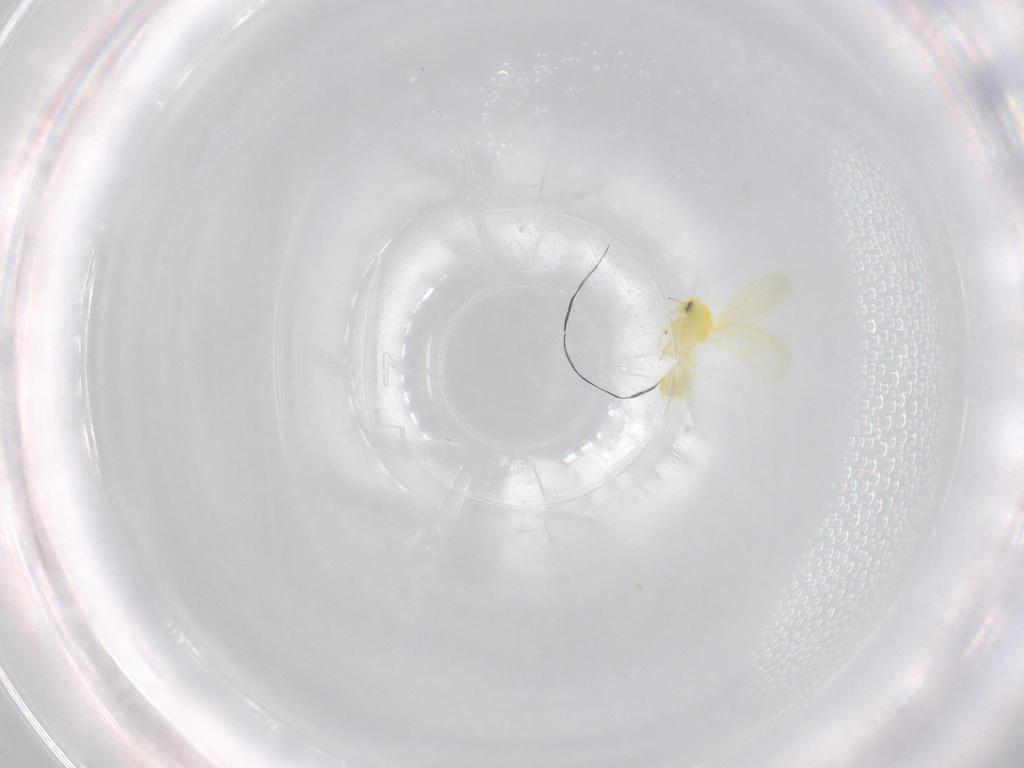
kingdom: Animalia
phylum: Arthropoda
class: Insecta
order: Hemiptera
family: Aleyrodidae
